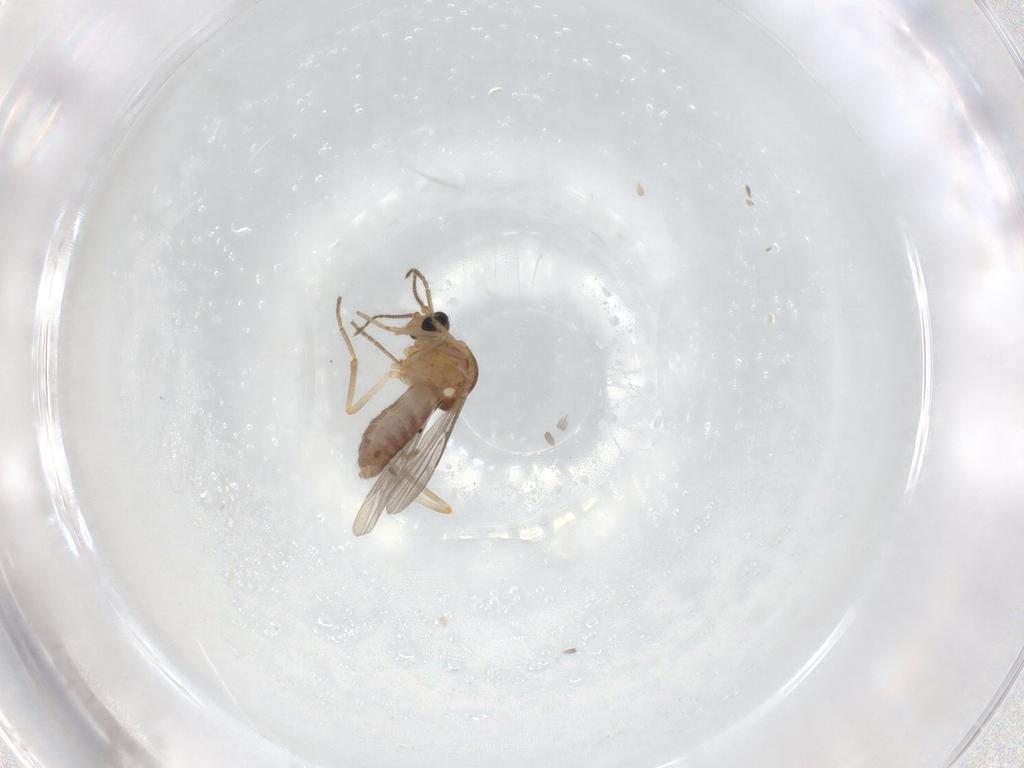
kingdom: Animalia
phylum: Arthropoda
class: Insecta
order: Diptera
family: Ceratopogonidae
